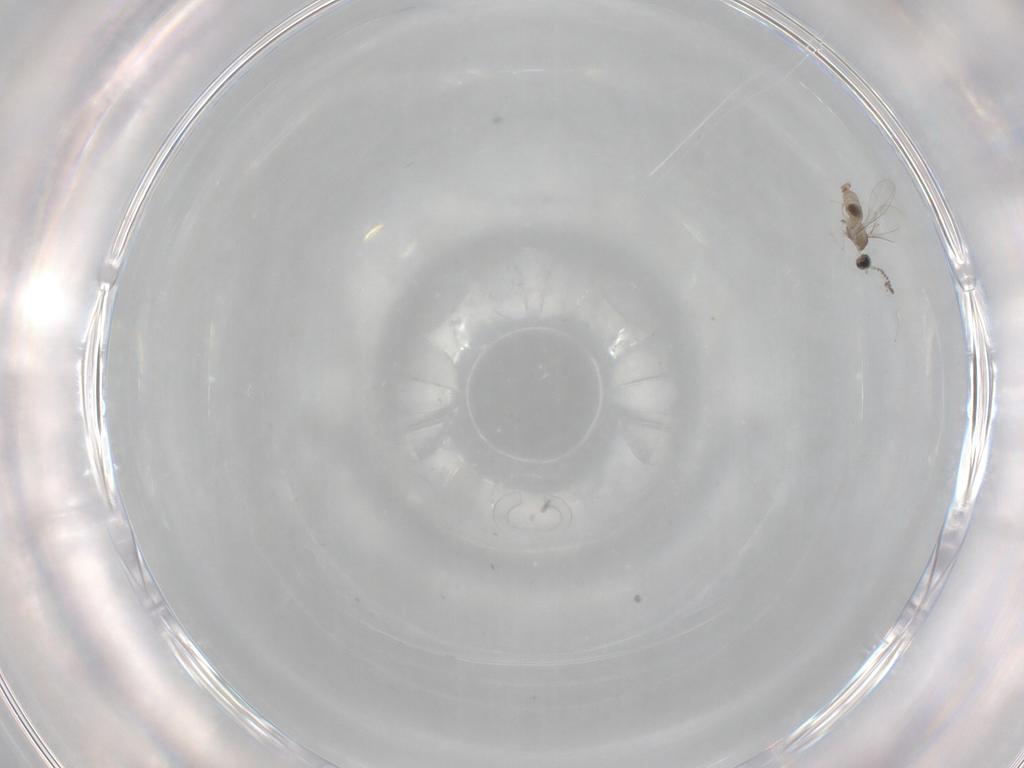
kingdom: Animalia
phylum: Arthropoda
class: Insecta
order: Diptera
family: Cecidomyiidae
